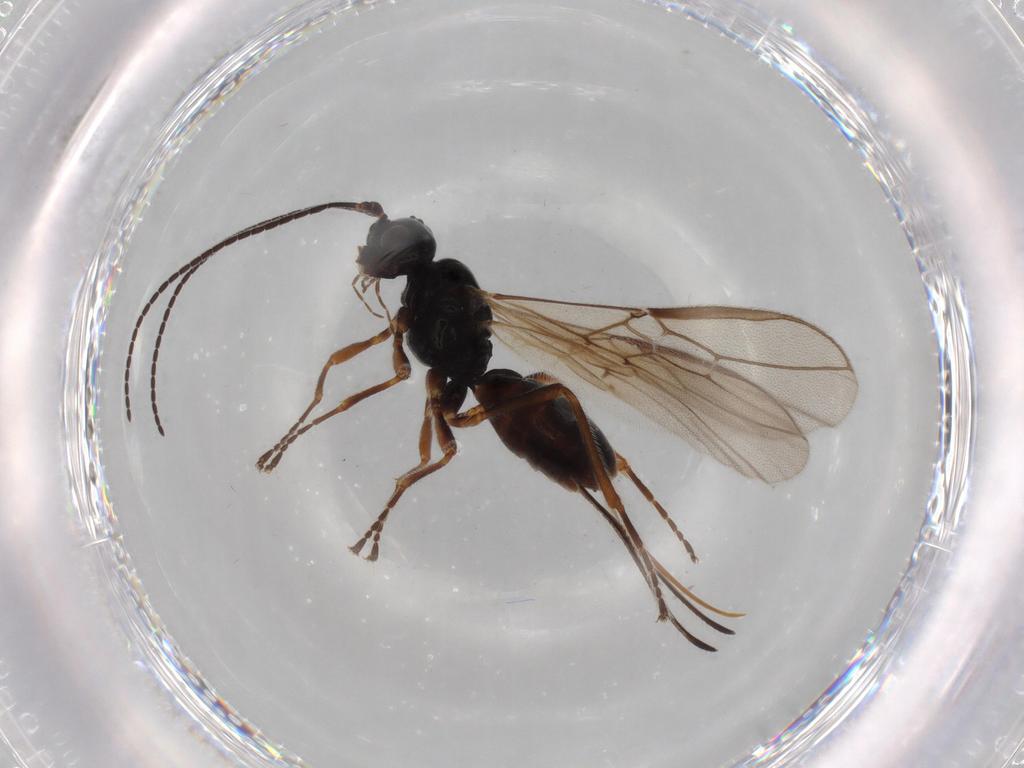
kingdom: Animalia
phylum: Arthropoda
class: Insecta
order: Hymenoptera
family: Braconidae
